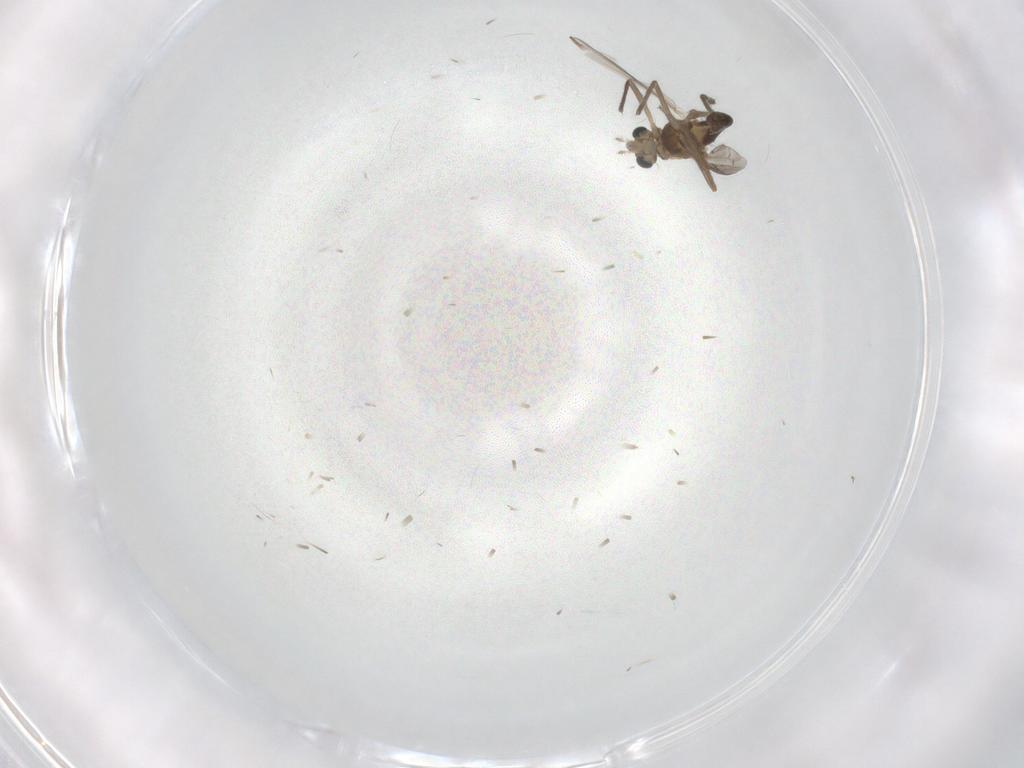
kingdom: Animalia
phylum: Arthropoda
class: Insecta
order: Diptera
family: Chironomidae
